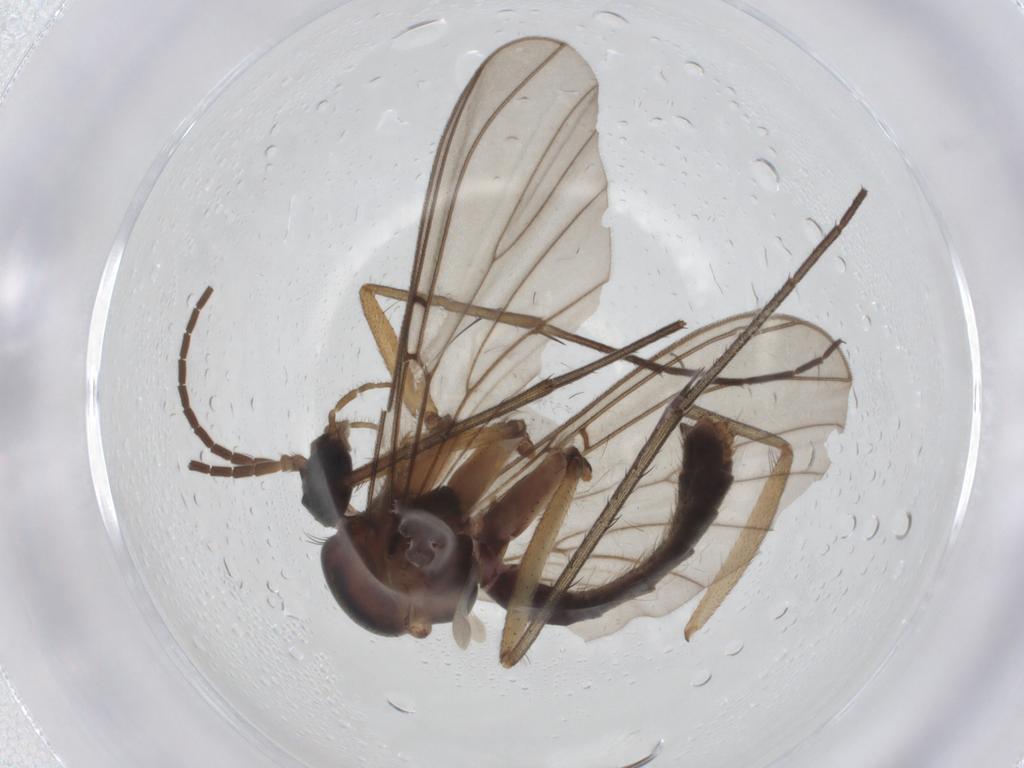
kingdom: Animalia
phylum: Arthropoda
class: Insecta
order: Diptera
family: Mycetophilidae
